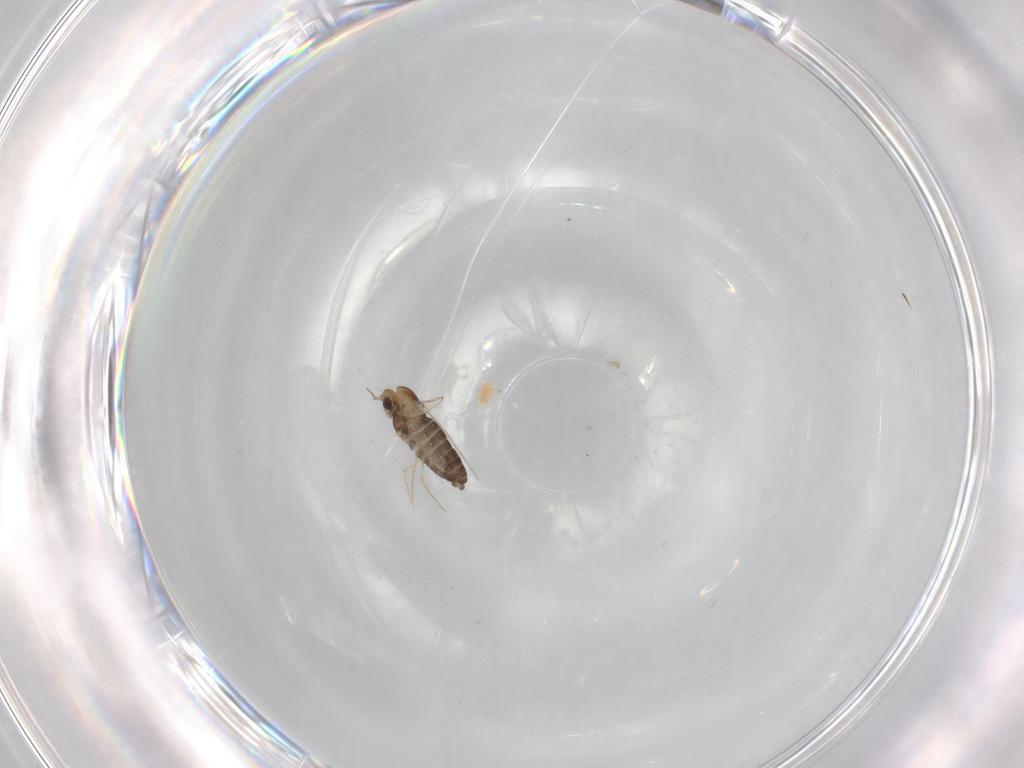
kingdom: Animalia
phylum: Arthropoda
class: Insecta
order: Diptera
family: Chironomidae
